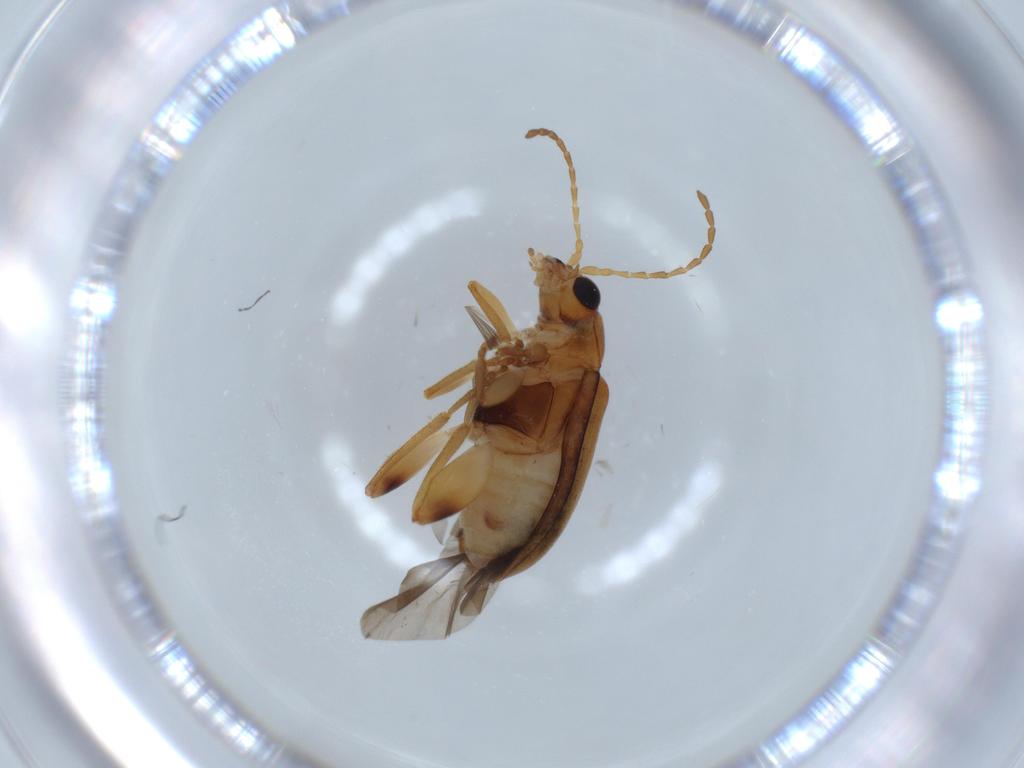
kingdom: Animalia
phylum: Arthropoda
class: Insecta
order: Coleoptera
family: Chrysomelidae
